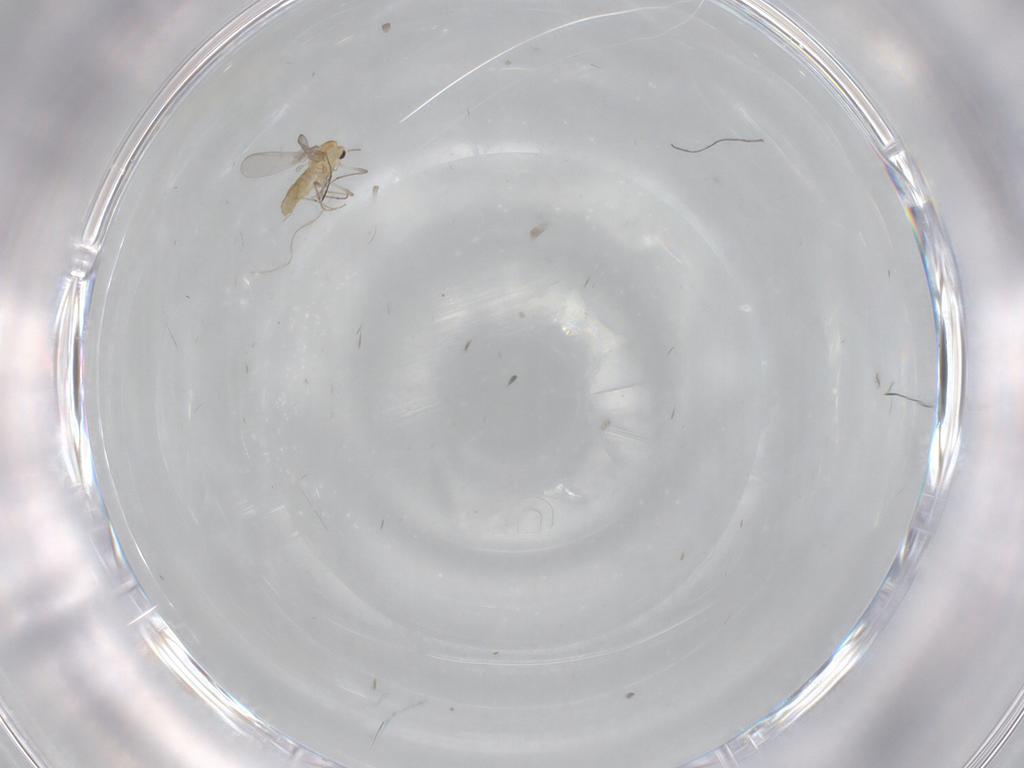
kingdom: Animalia
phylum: Arthropoda
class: Insecta
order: Diptera
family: Chironomidae
